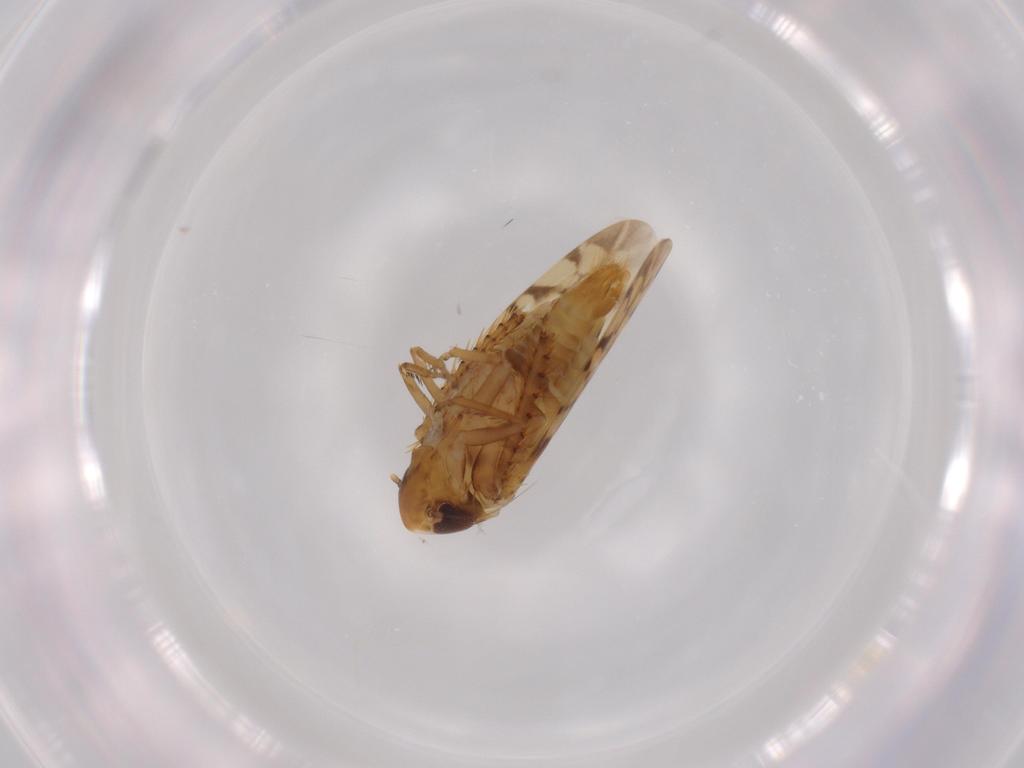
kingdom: Animalia
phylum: Arthropoda
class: Insecta
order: Hemiptera
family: Cicadellidae
